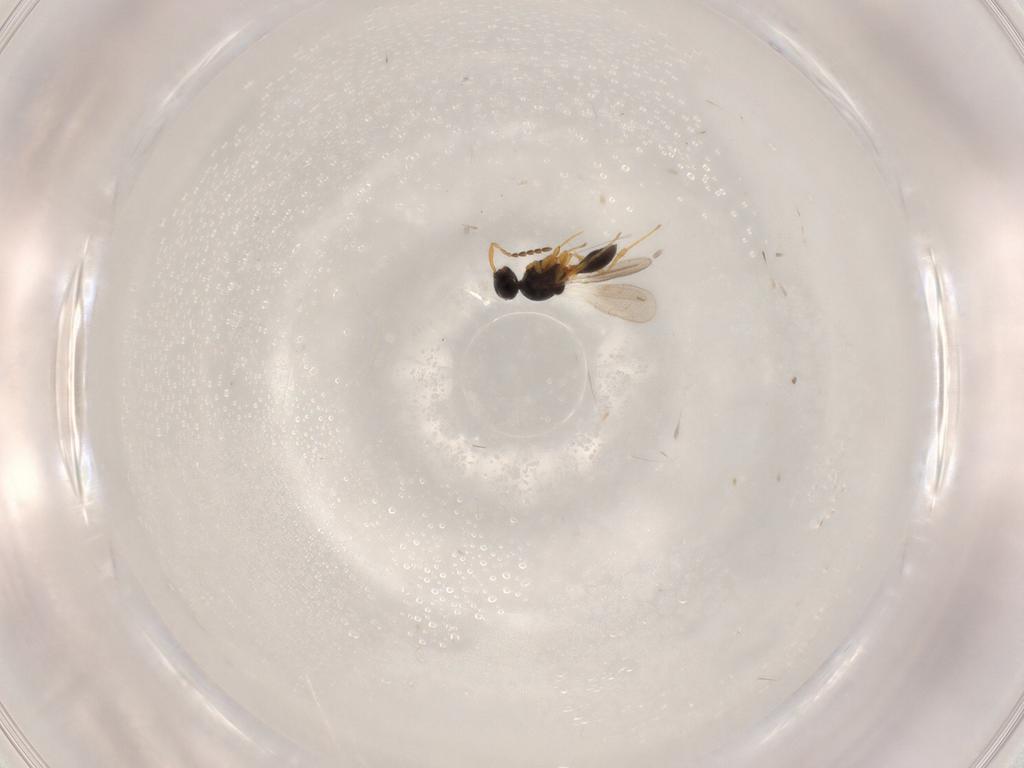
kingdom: Animalia
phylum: Arthropoda
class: Insecta
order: Hymenoptera
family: Platygastridae
